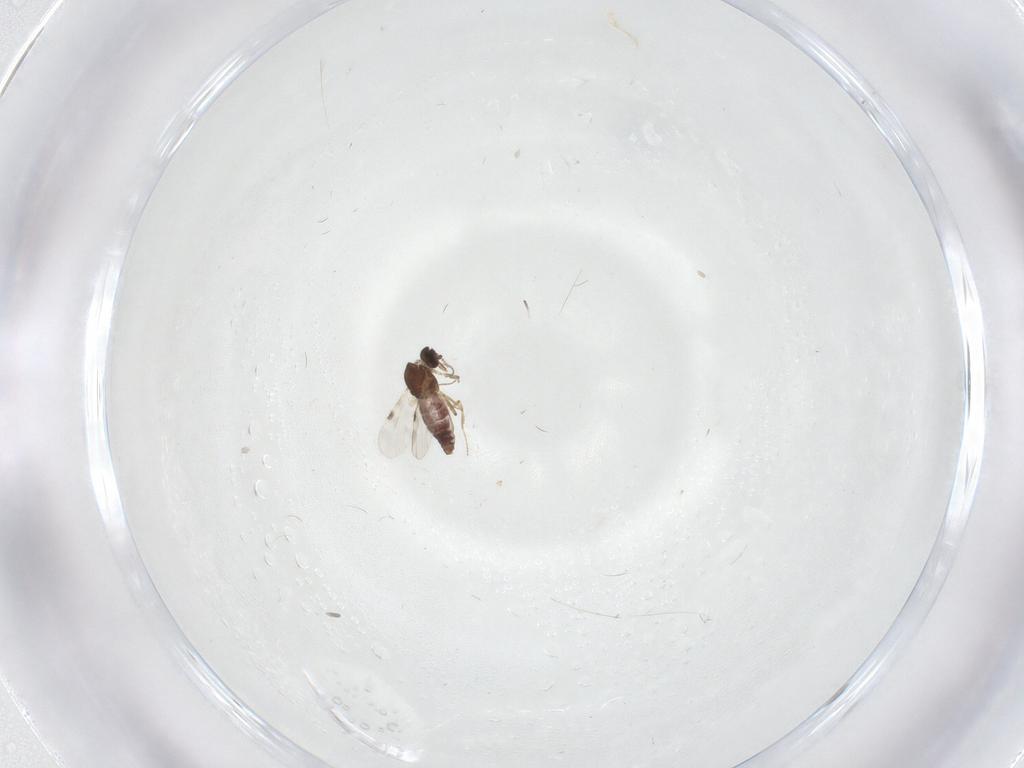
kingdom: Animalia
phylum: Arthropoda
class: Insecta
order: Diptera
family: Chironomidae
